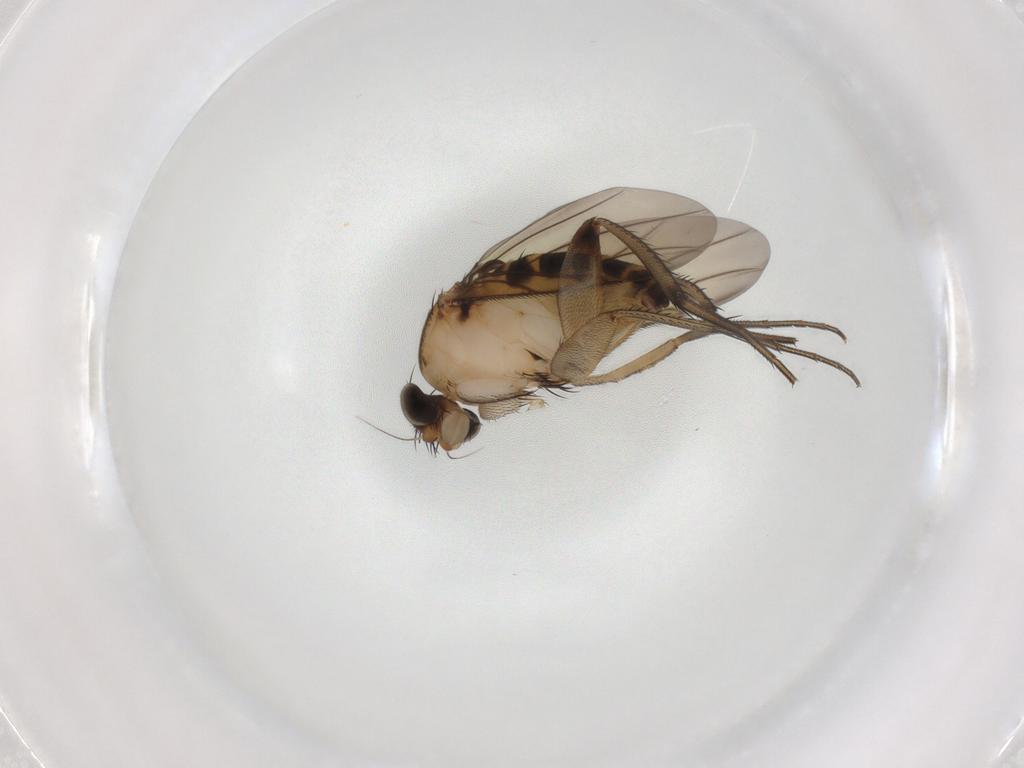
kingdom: Animalia
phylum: Arthropoda
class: Insecta
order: Diptera
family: Phoridae
